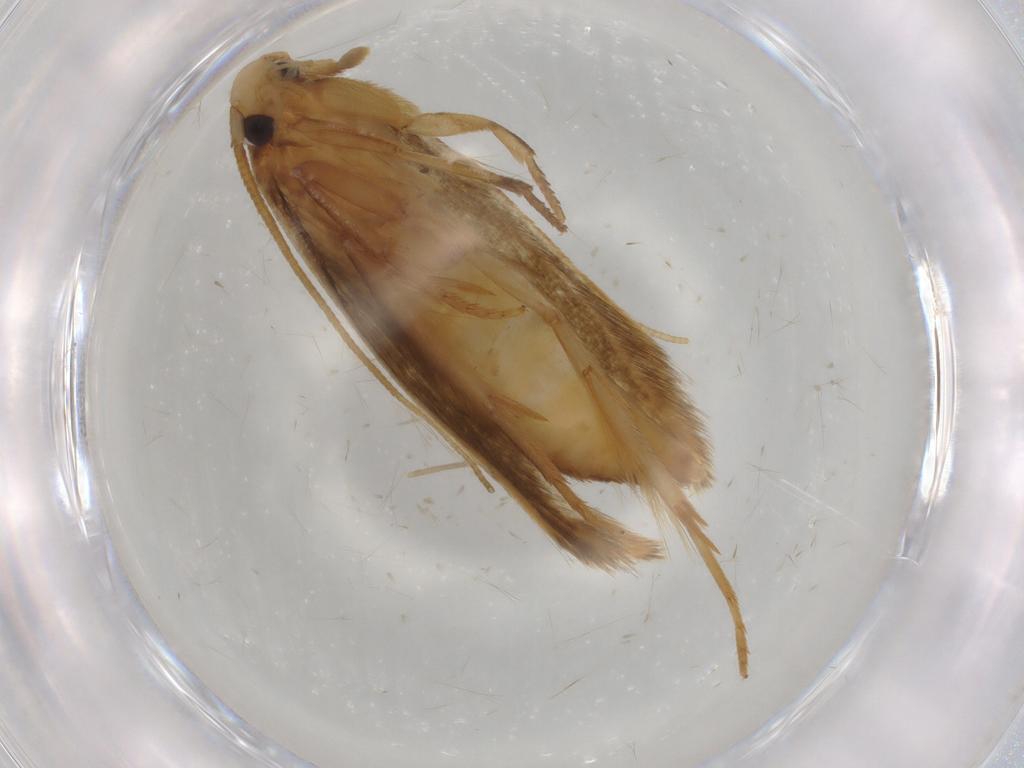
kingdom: Animalia
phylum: Arthropoda
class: Insecta
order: Lepidoptera
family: Tineidae
